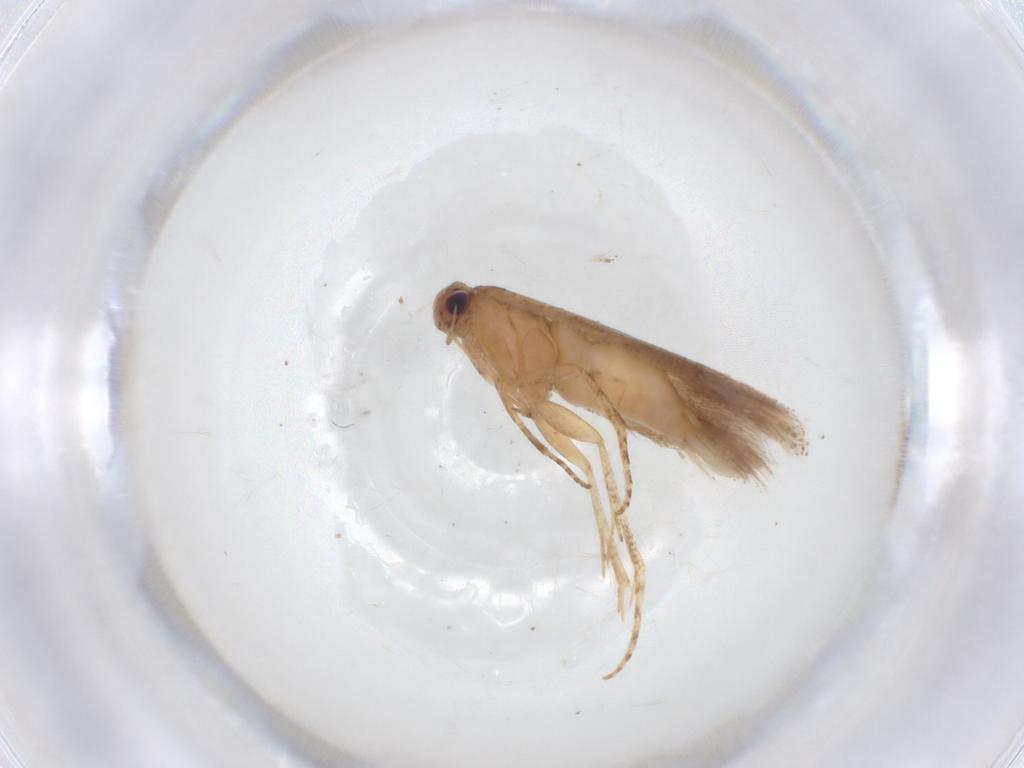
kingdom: Animalia
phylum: Arthropoda
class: Insecta
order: Lepidoptera
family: Gelechiidae
